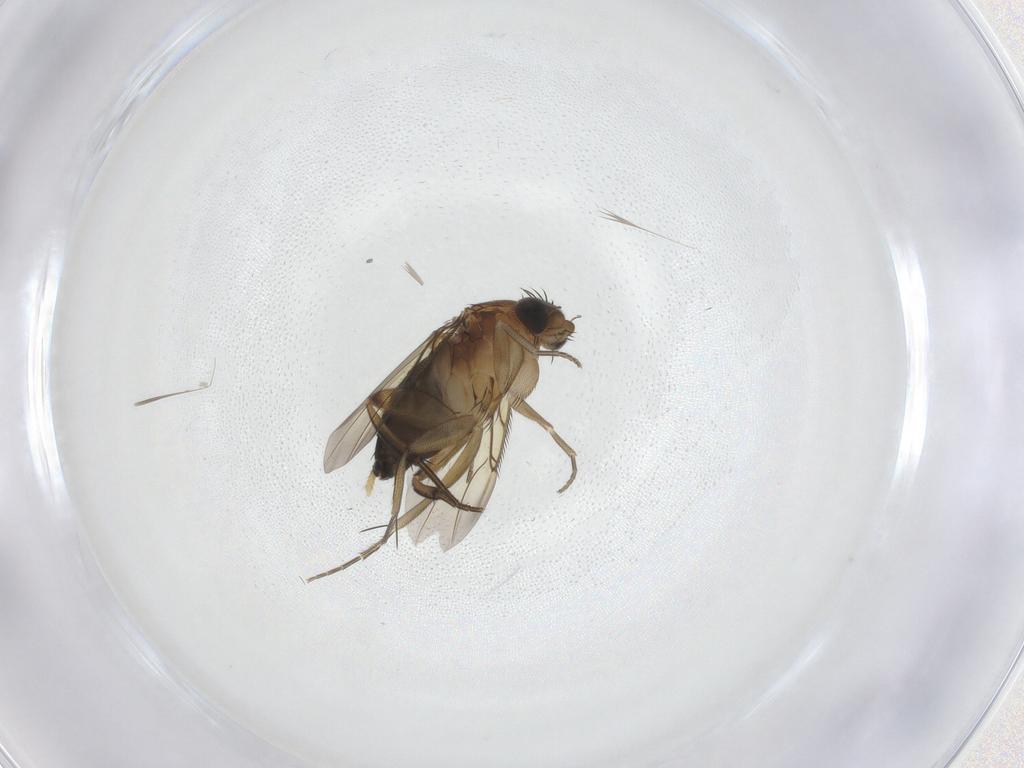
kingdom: Animalia
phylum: Arthropoda
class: Insecta
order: Diptera
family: Phoridae
